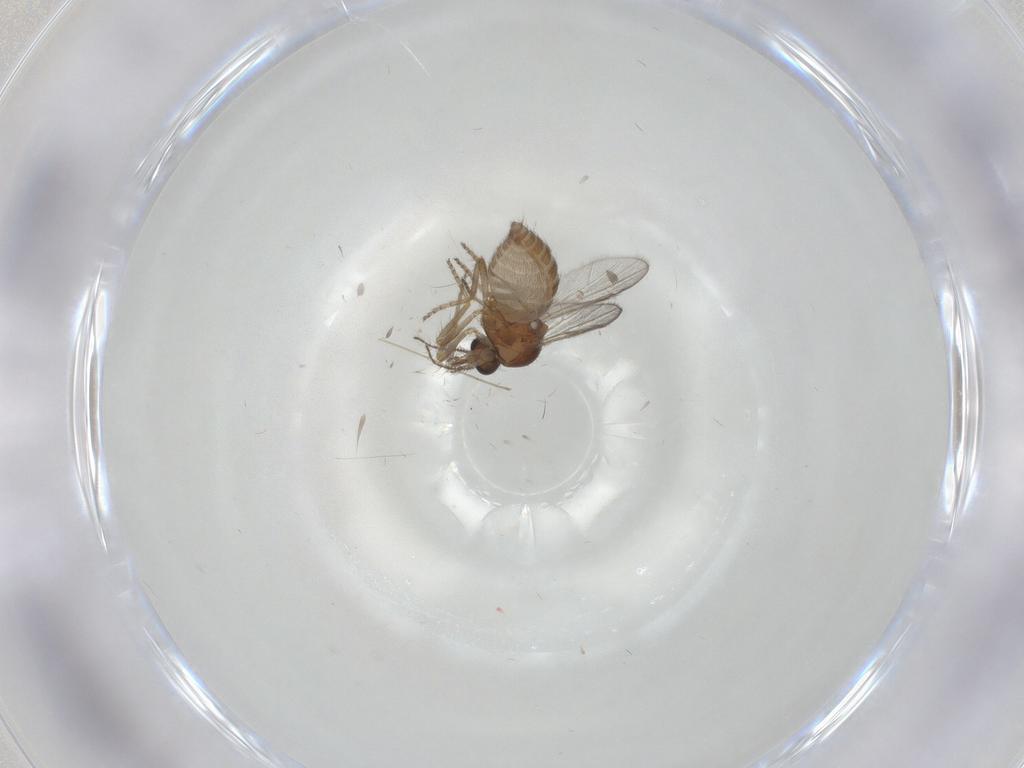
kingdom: Animalia
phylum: Arthropoda
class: Insecta
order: Diptera
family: Ceratopogonidae
